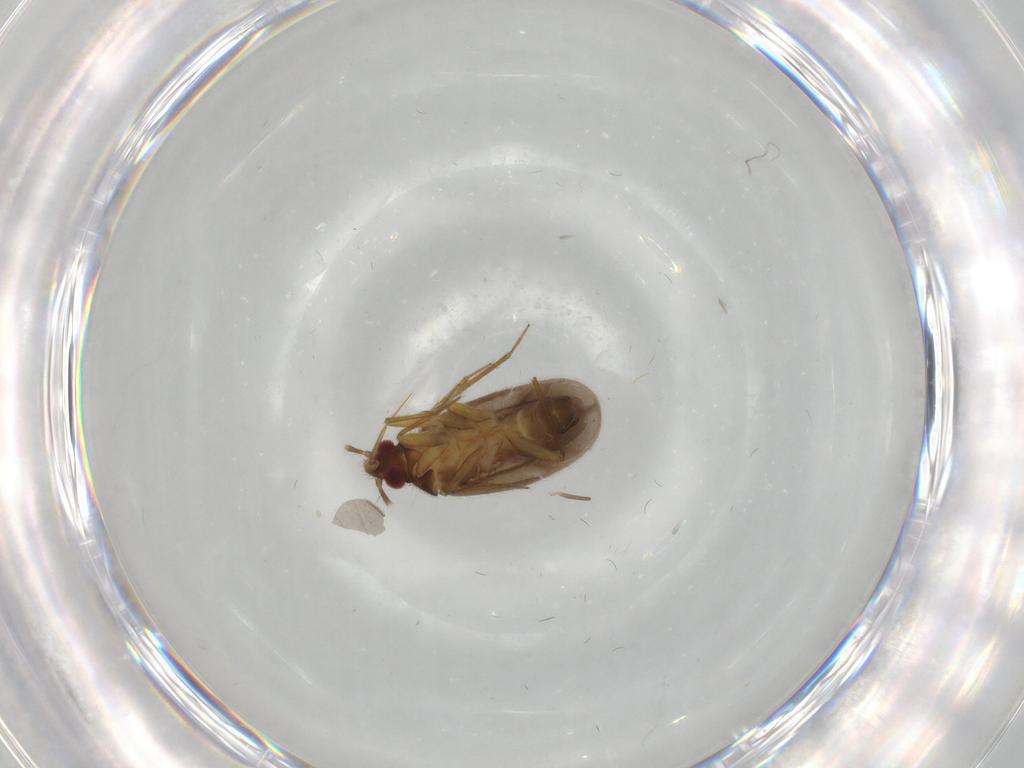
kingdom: Animalia
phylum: Arthropoda
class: Insecta
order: Hemiptera
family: Ceratocombidae
